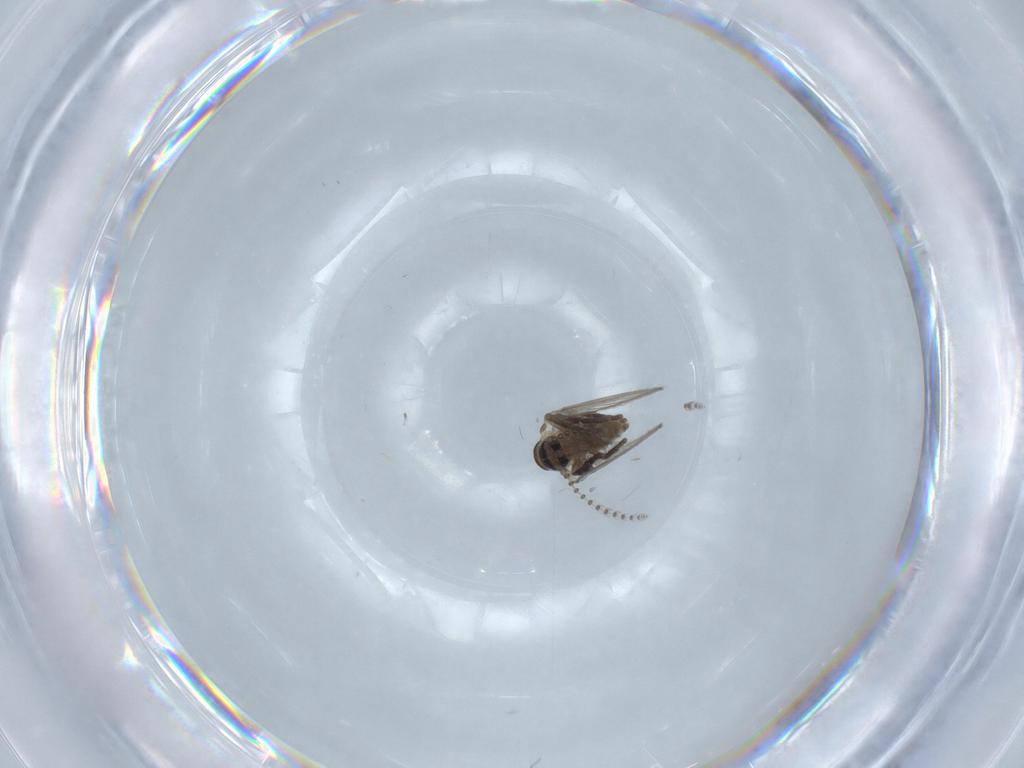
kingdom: Animalia
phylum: Arthropoda
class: Insecta
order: Diptera
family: Psychodidae
